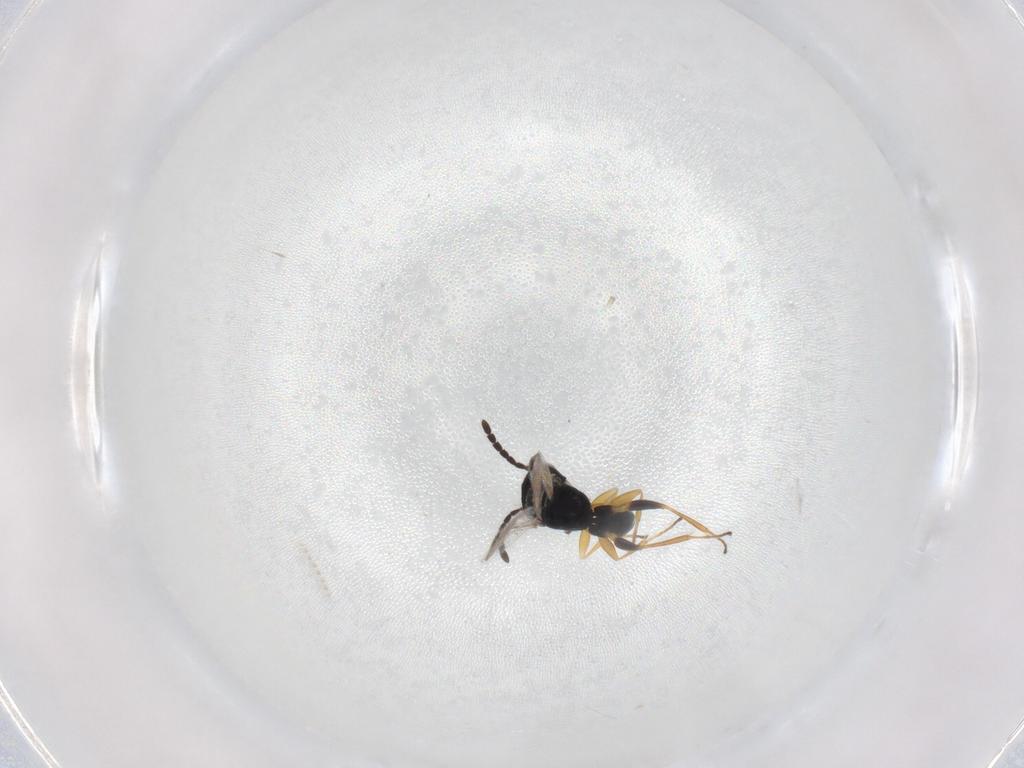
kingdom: Animalia
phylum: Arthropoda
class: Insecta
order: Hymenoptera
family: Dryinidae
